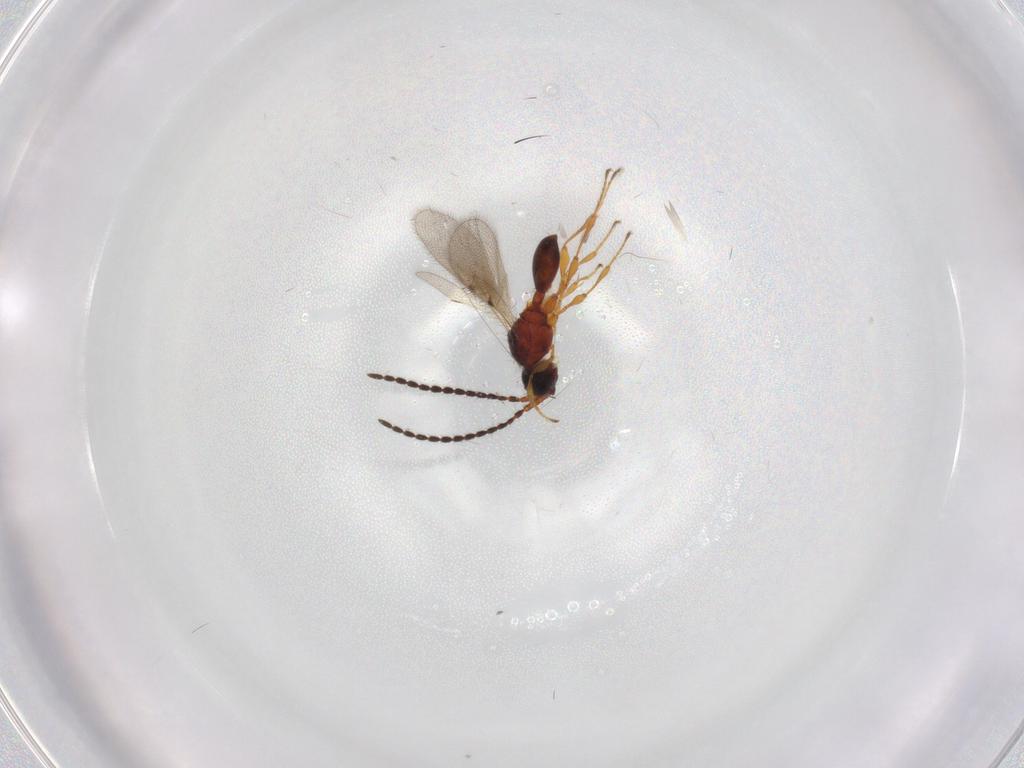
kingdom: Animalia
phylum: Arthropoda
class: Insecta
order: Hymenoptera
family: Diapriidae
